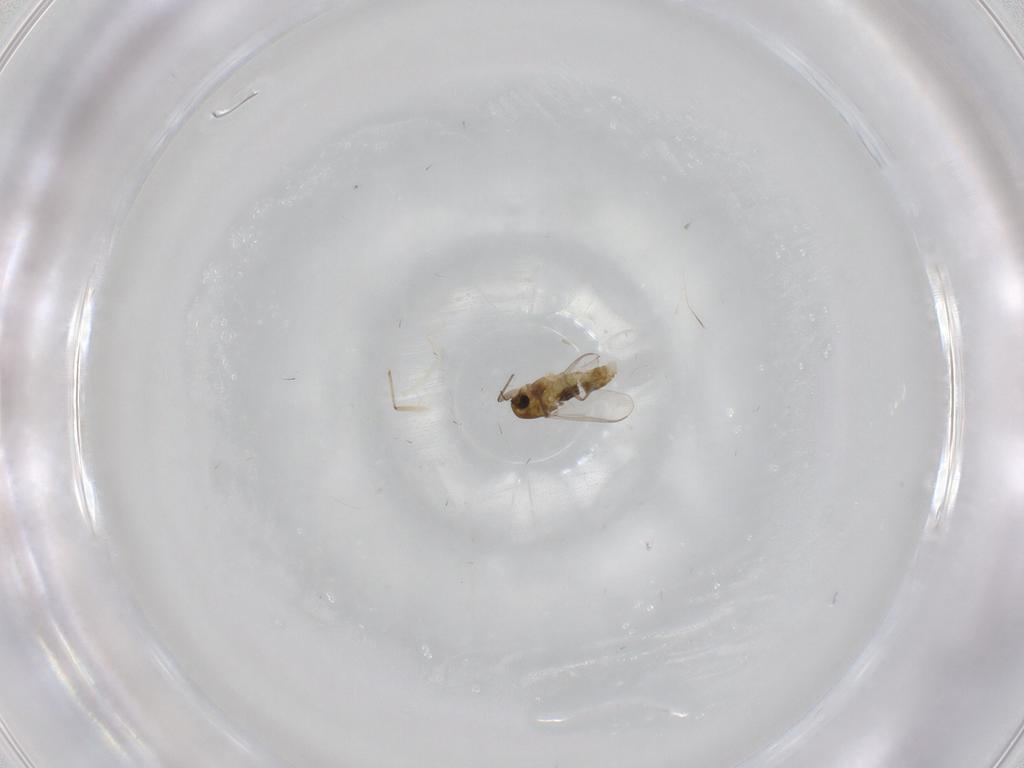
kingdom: Animalia
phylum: Arthropoda
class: Insecta
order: Diptera
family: Chironomidae
